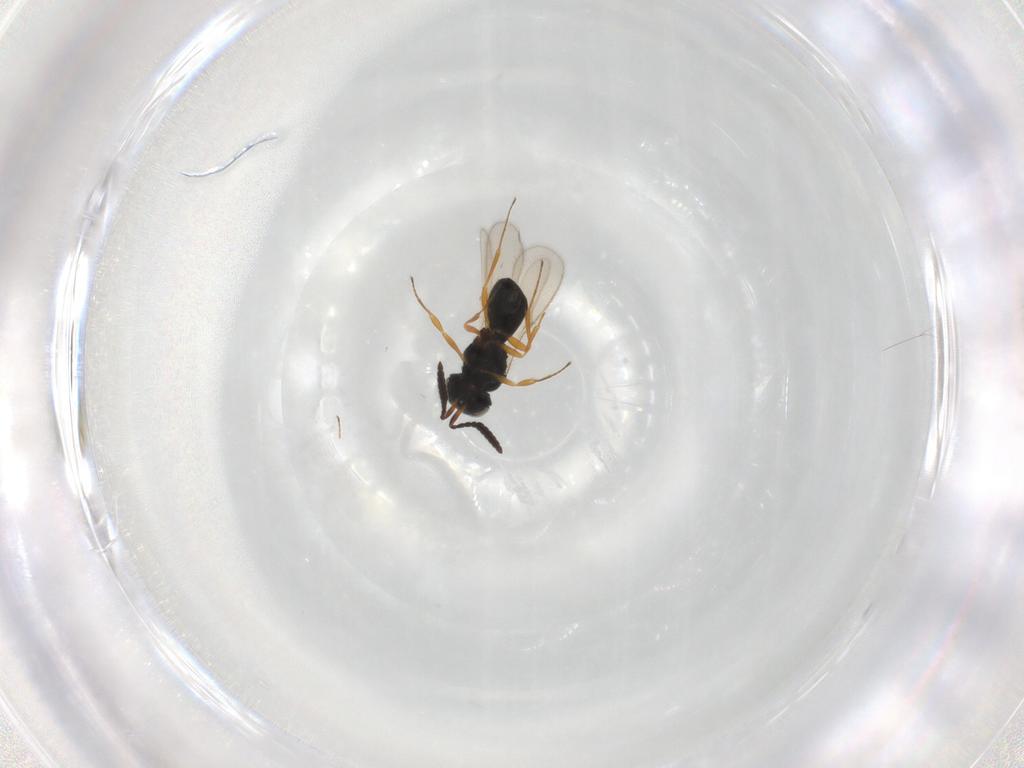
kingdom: Animalia
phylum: Arthropoda
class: Insecta
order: Hymenoptera
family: Scelionidae
